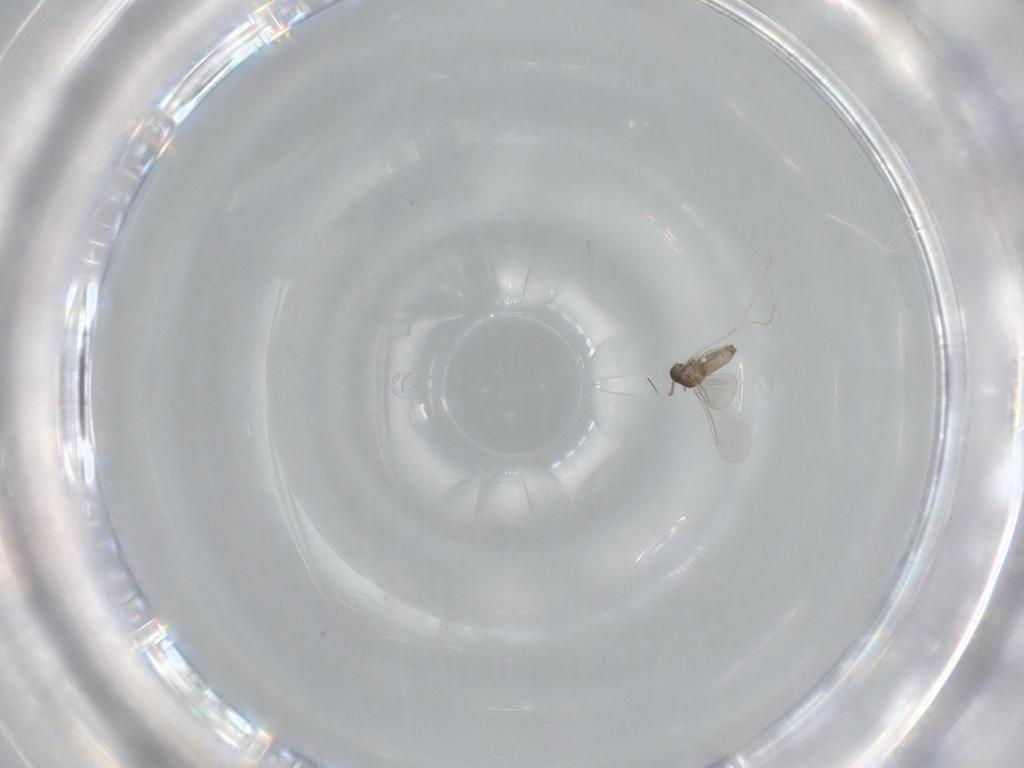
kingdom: Animalia
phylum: Arthropoda
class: Insecta
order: Diptera
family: Cecidomyiidae
